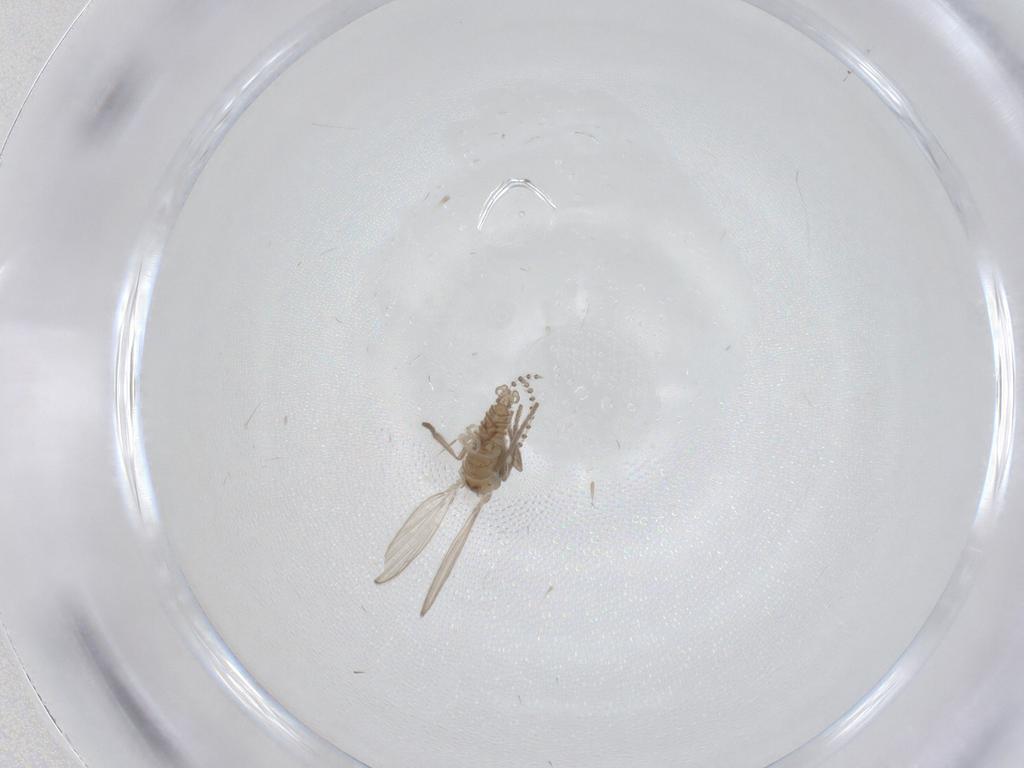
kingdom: Animalia
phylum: Arthropoda
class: Insecta
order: Diptera
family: Psychodidae
